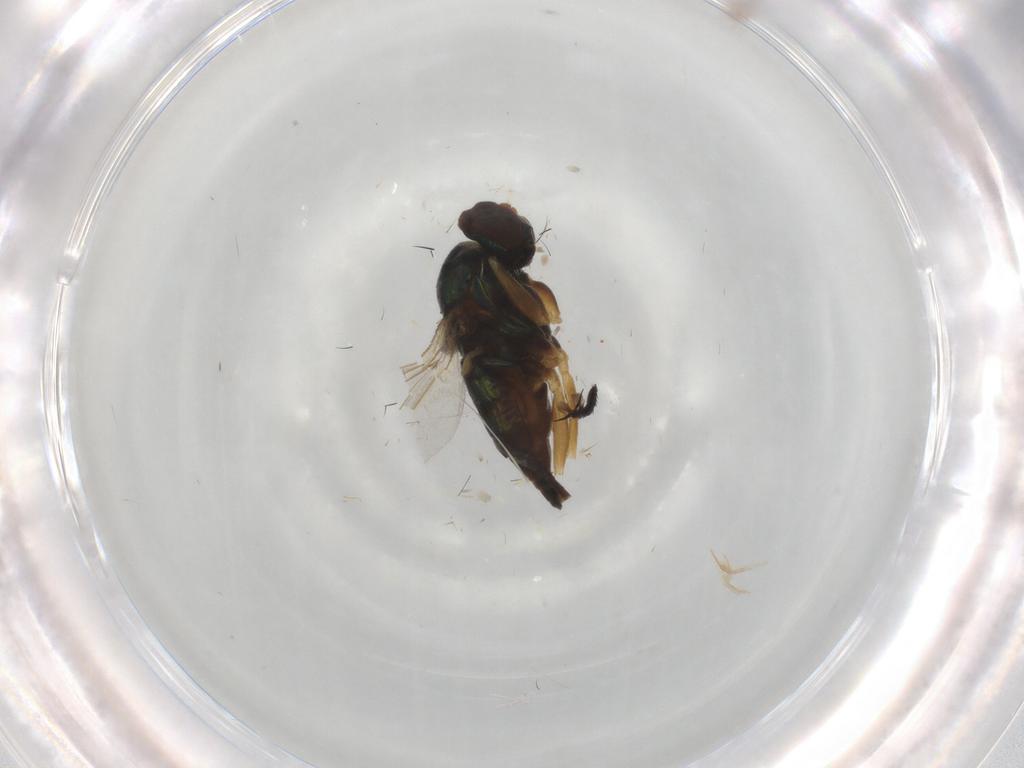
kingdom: Animalia
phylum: Arthropoda
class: Insecta
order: Diptera
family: Dolichopodidae
